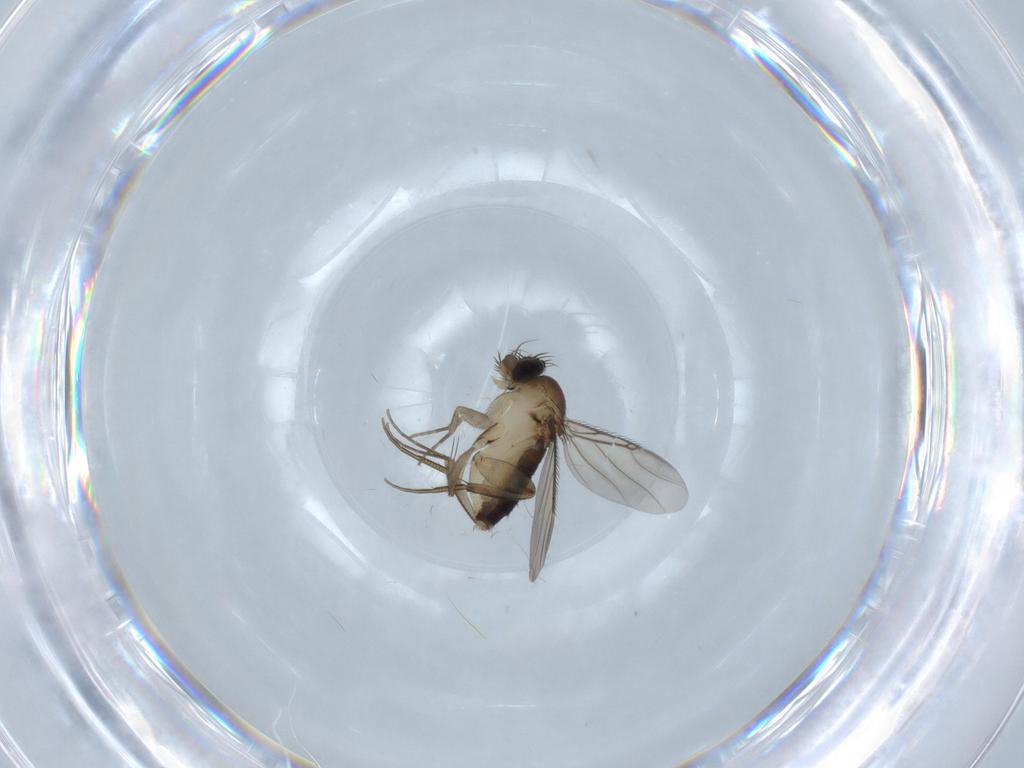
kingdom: Animalia
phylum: Arthropoda
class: Insecta
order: Diptera
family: Phoridae
